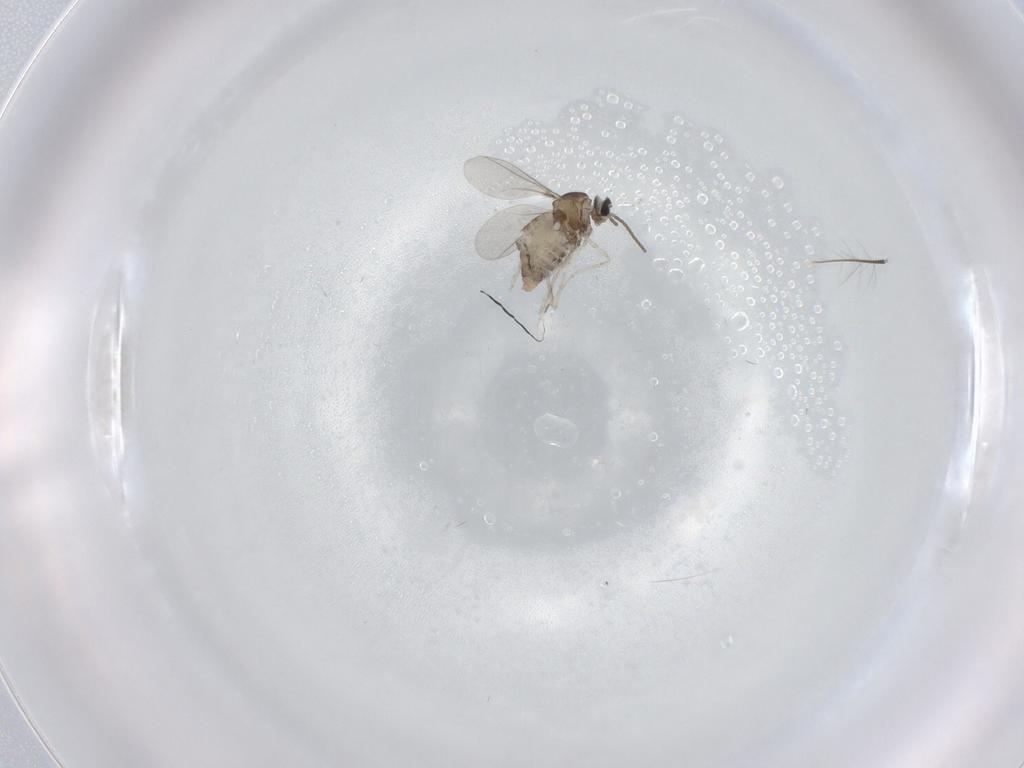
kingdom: Animalia
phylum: Arthropoda
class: Insecta
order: Diptera
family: Cecidomyiidae
